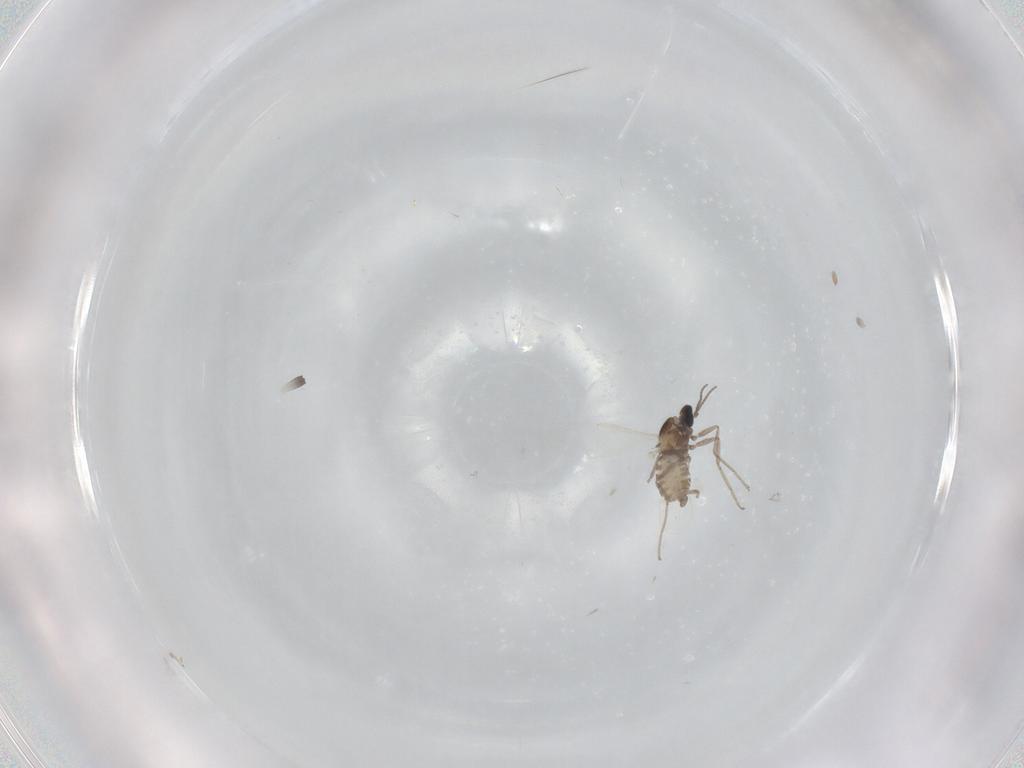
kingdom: Animalia
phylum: Arthropoda
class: Insecta
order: Diptera
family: Cecidomyiidae
